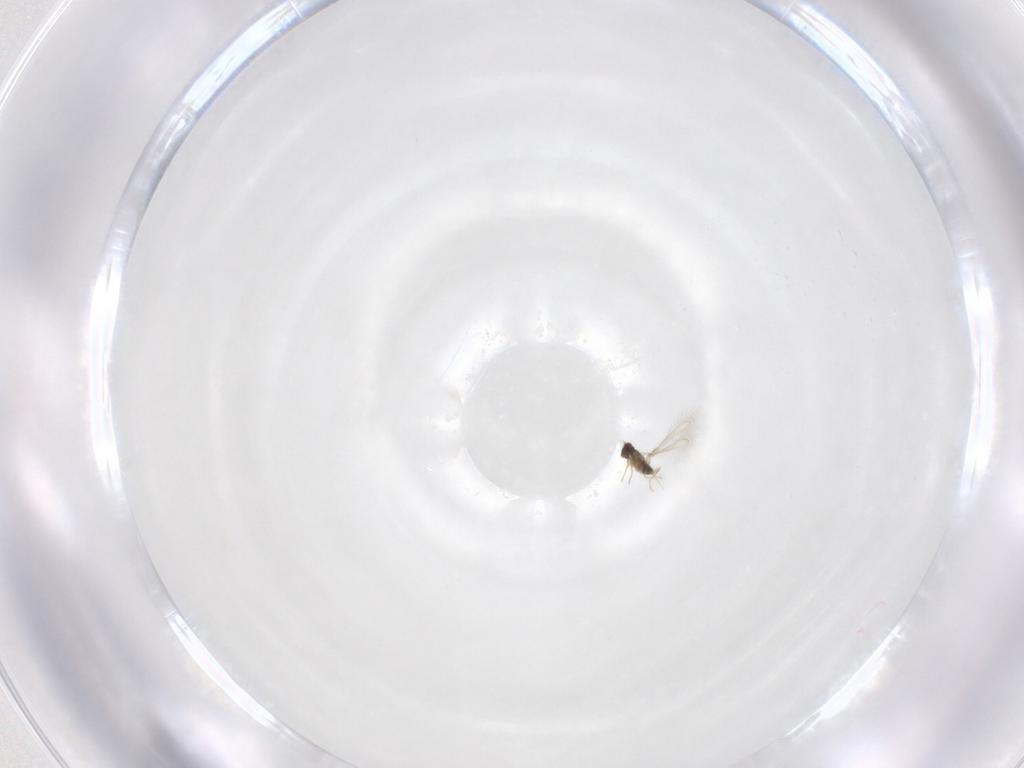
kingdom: Animalia
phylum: Arthropoda
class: Insecta
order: Hymenoptera
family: Mymaridae
